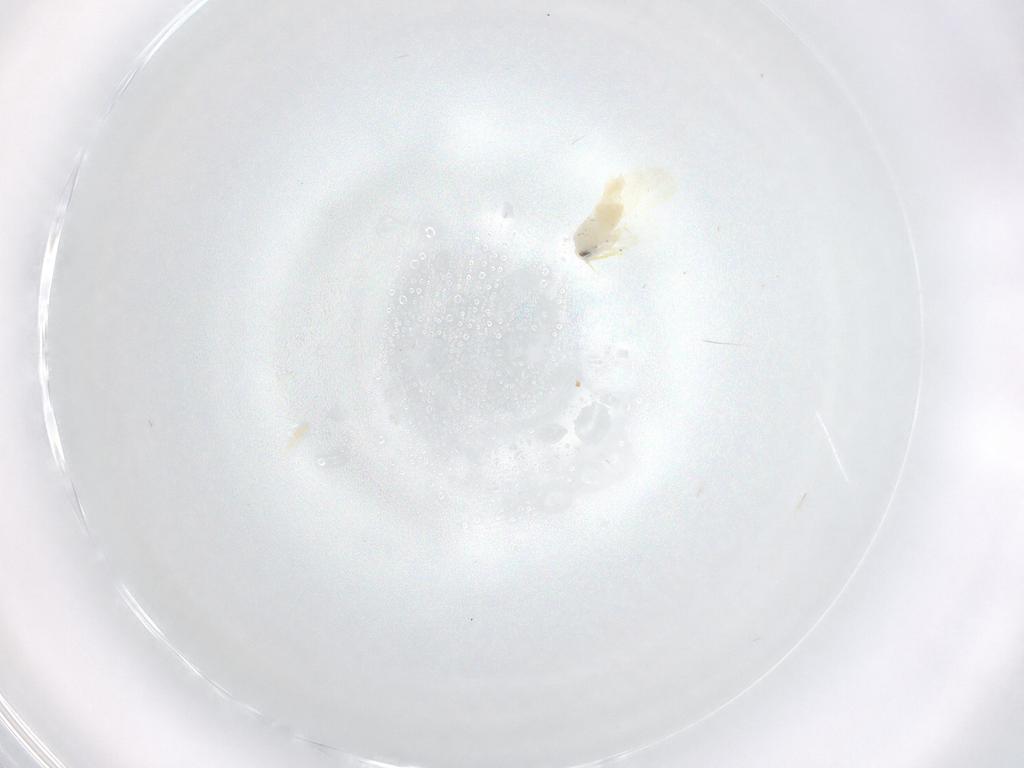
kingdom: Animalia
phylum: Arthropoda
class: Insecta
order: Hemiptera
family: Aleyrodidae
